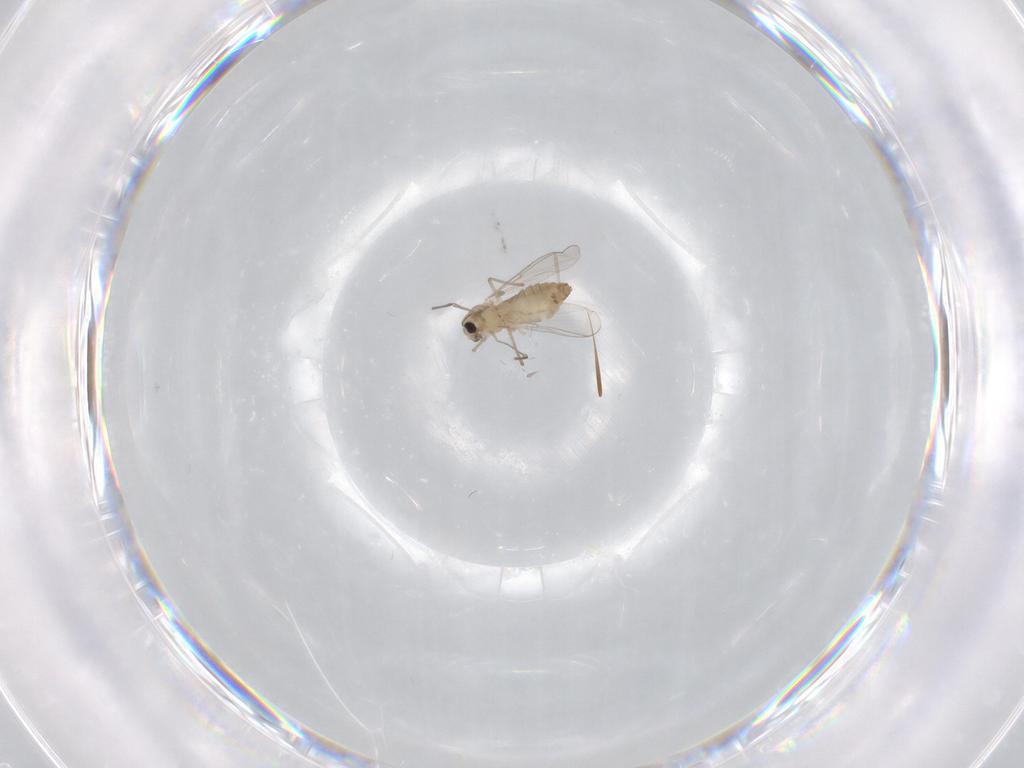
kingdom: Animalia
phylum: Arthropoda
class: Insecta
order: Diptera
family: Chironomidae
